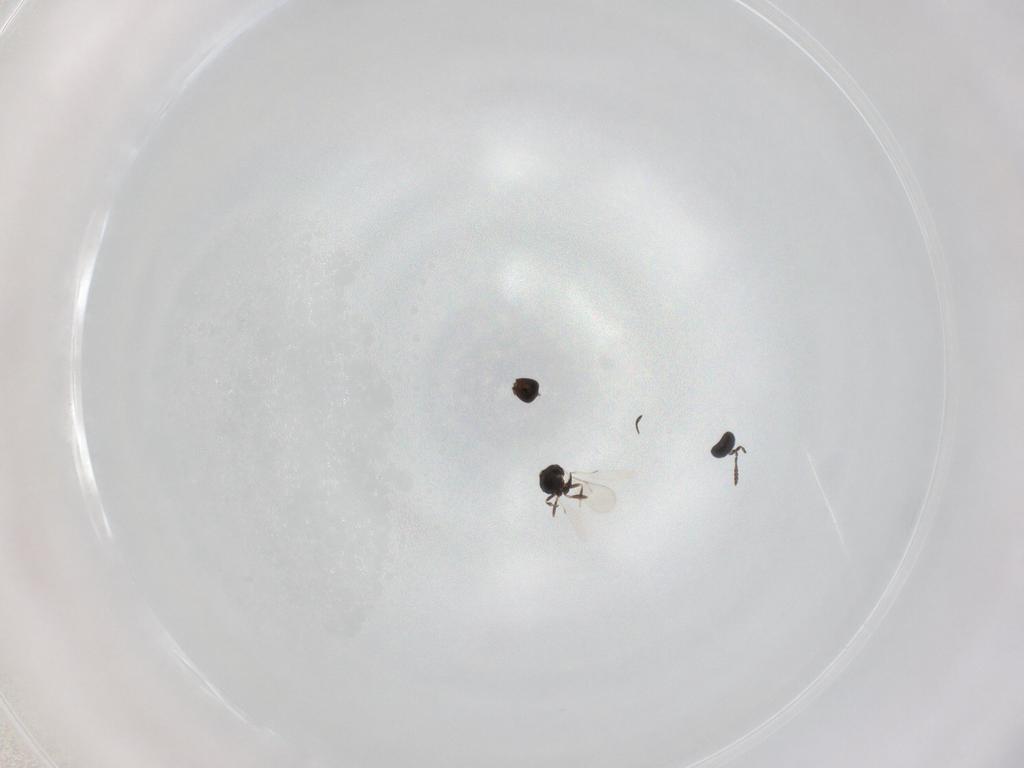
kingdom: Animalia
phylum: Arthropoda
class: Insecta
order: Hymenoptera
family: Scelionidae
